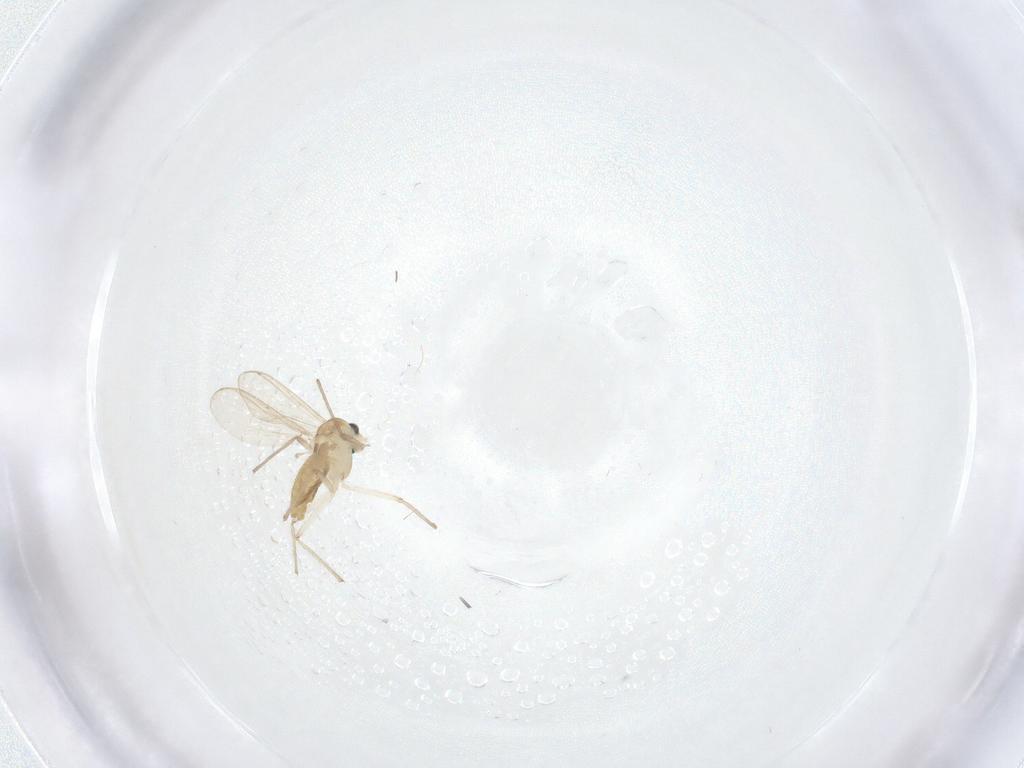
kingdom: Animalia
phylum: Arthropoda
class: Insecta
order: Diptera
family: Chironomidae
